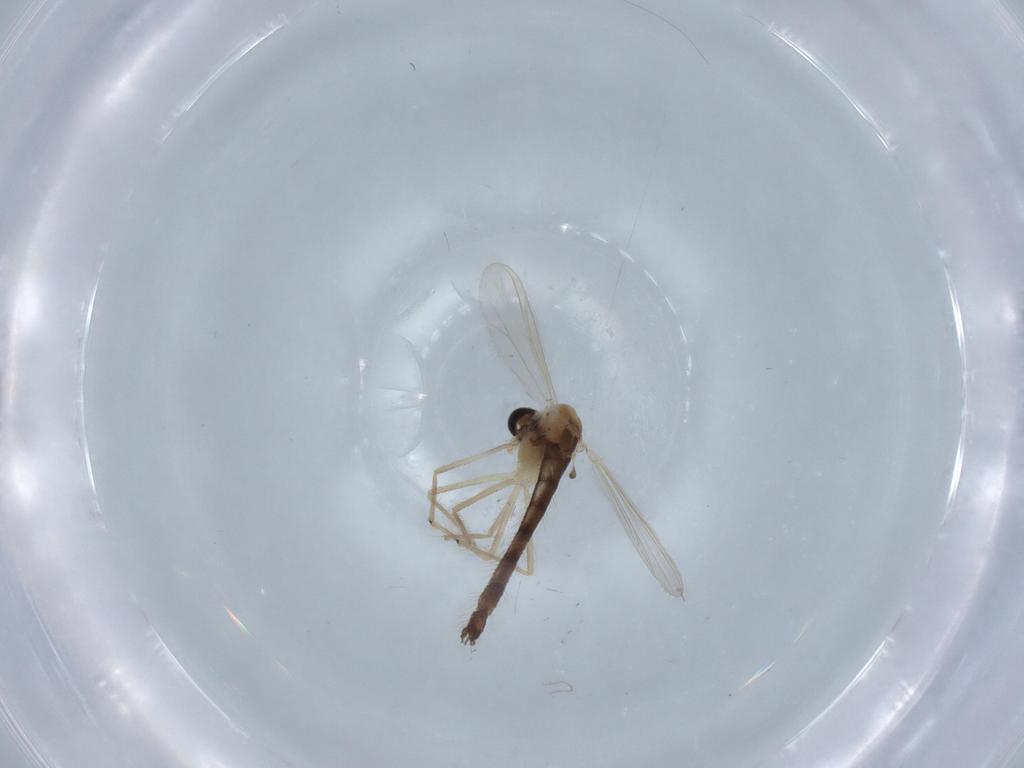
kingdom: Animalia
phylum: Arthropoda
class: Insecta
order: Diptera
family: Chironomidae
